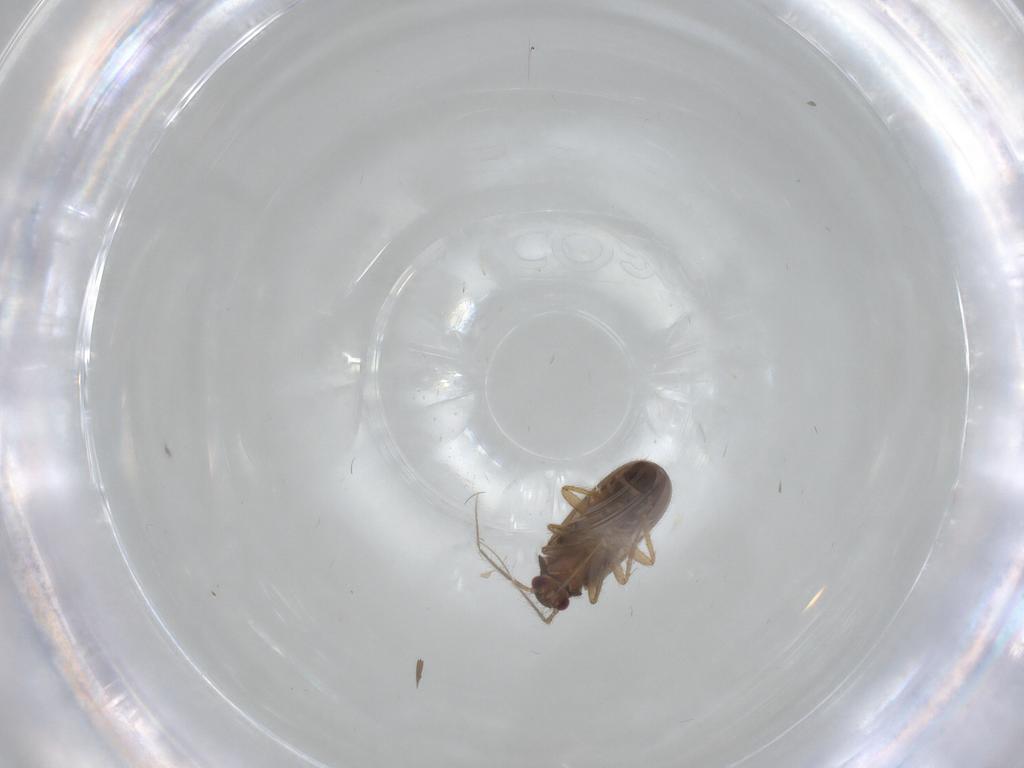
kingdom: Animalia
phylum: Arthropoda
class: Insecta
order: Hemiptera
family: Ceratocombidae
